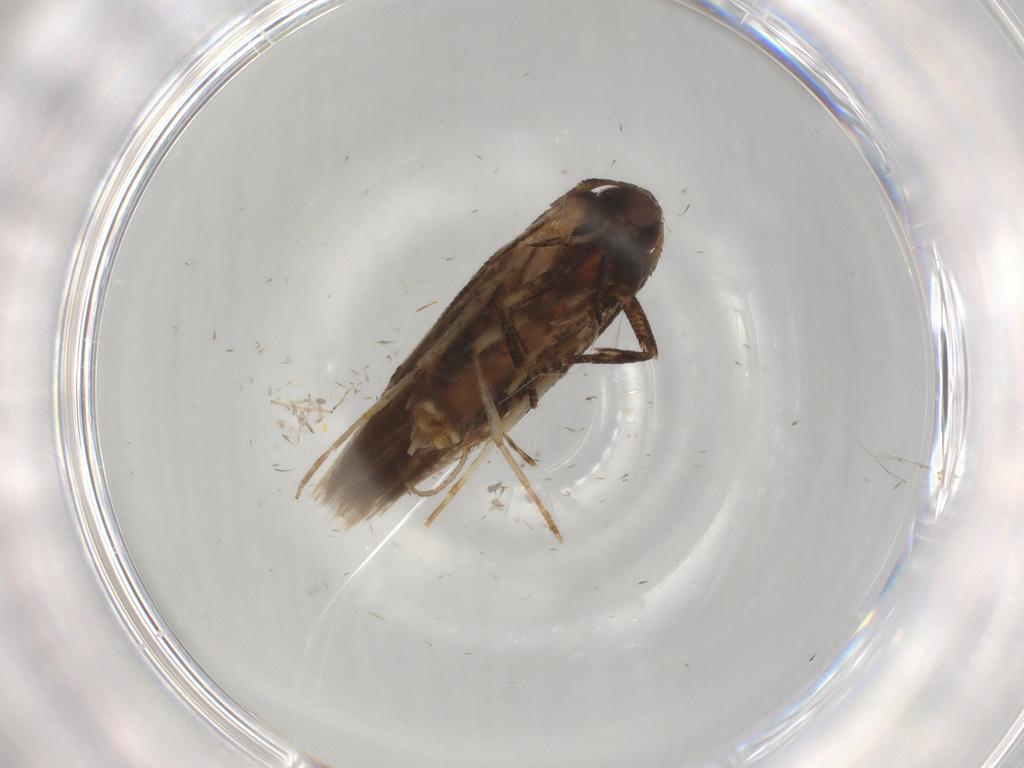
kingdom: Animalia
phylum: Arthropoda
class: Insecta
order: Lepidoptera
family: Cosmopterigidae
